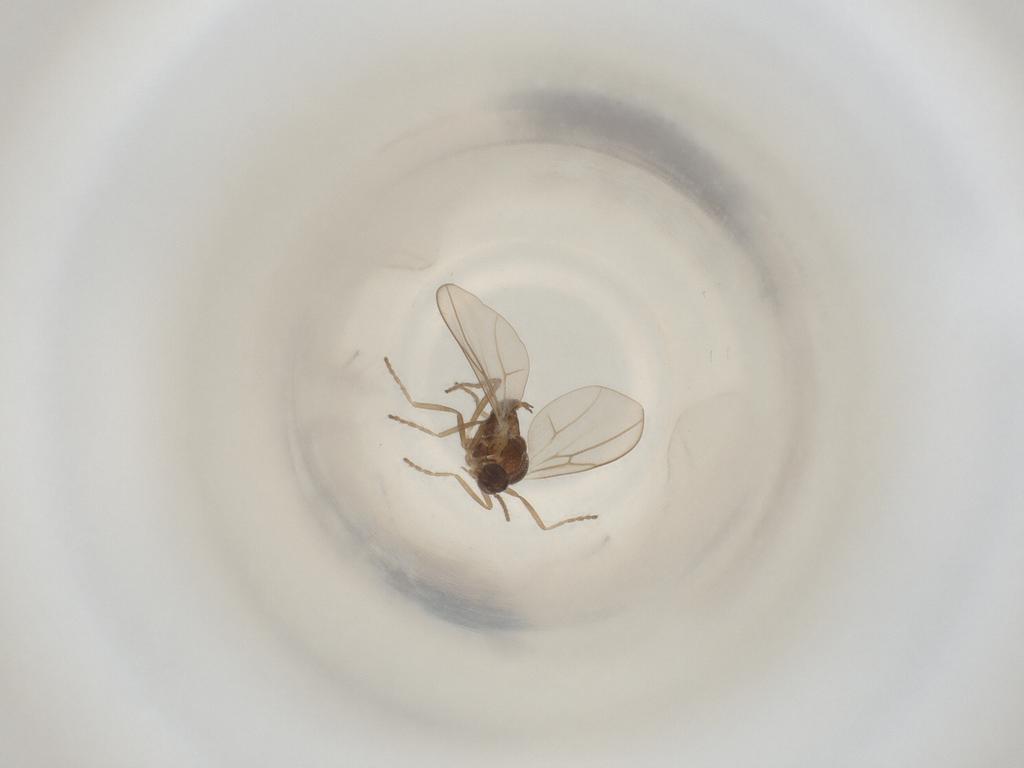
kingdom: Animalia
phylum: Arthropoda
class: Insecta
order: Diptera
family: Cecidomyiidae
